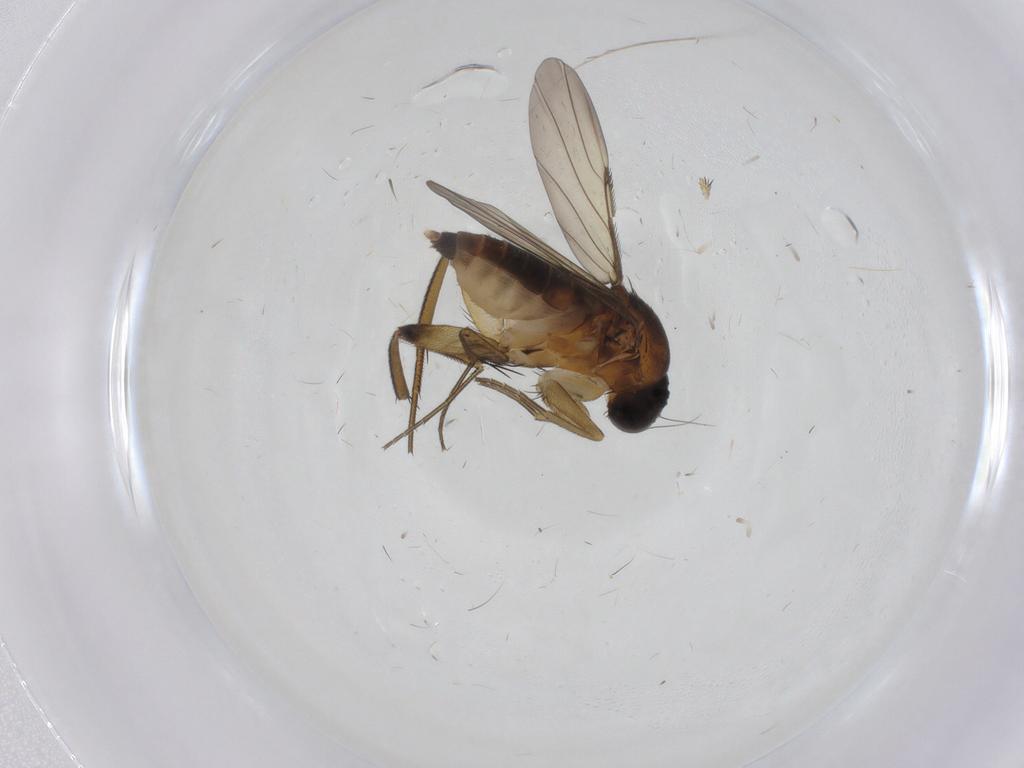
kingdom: Animalia
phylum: Arthropoda
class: Insecta
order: Diptera
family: Phoridae
